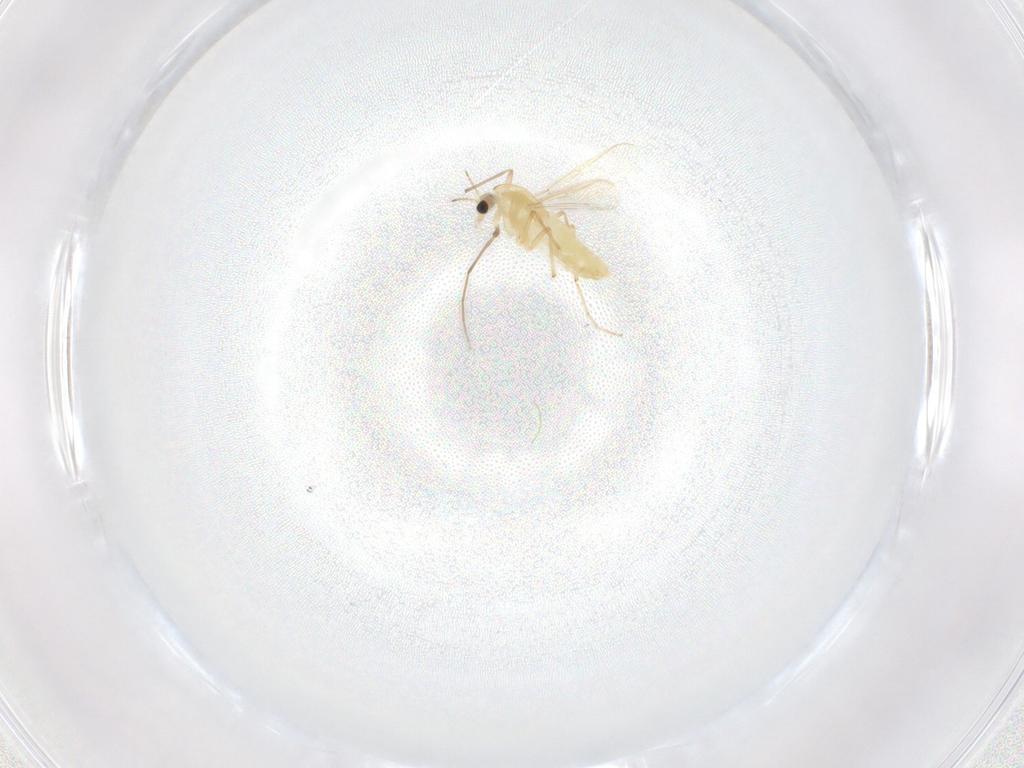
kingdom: Animalia
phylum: Arthropoda
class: Insecta
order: Diptera
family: Chironomidae
